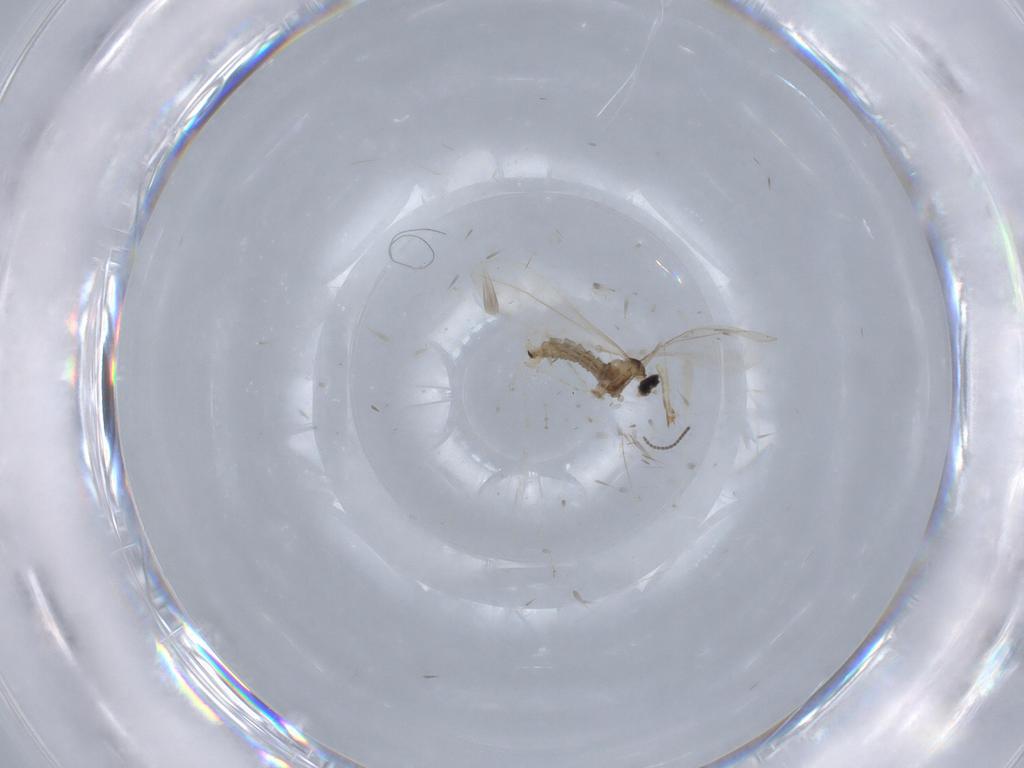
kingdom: Animalia
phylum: Arthropoda
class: Insecta
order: Diptera
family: Cecidomyiidae
